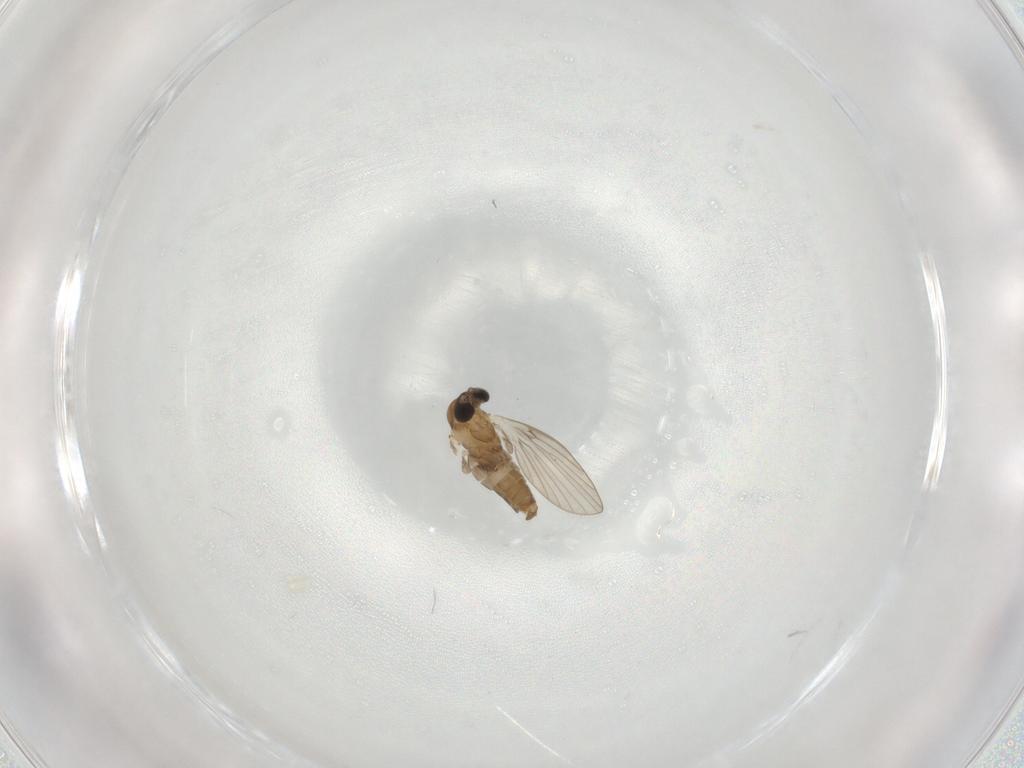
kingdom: Animalia
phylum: Arthropoda
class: Insecta
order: Diptera
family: Psychodidae
